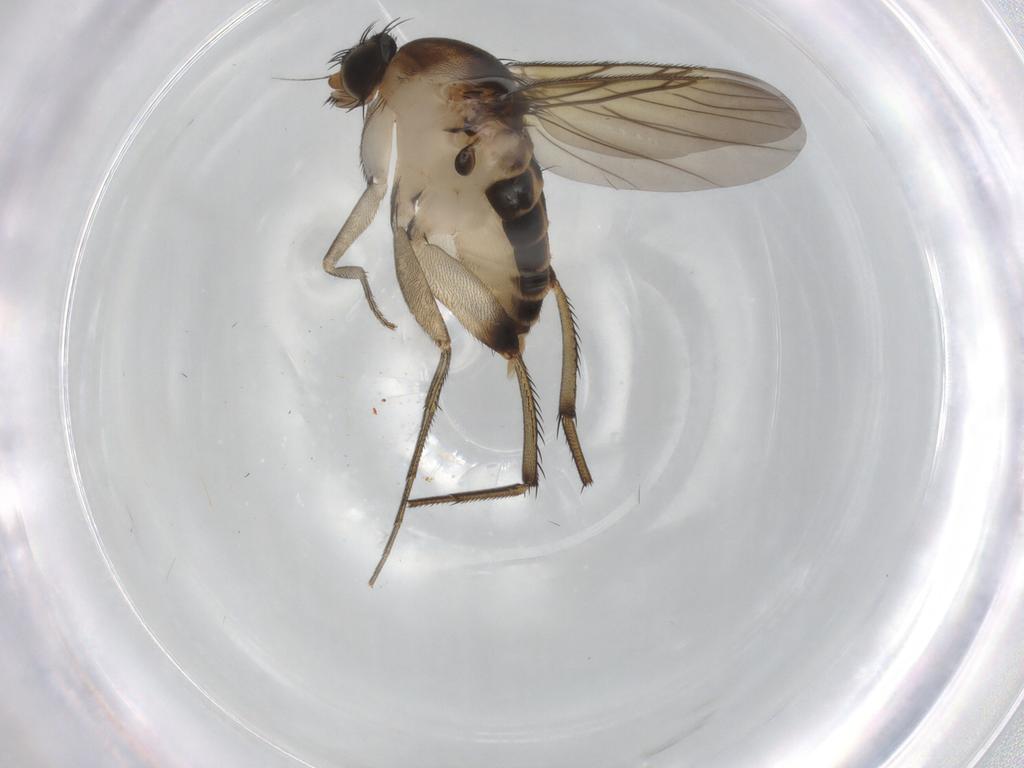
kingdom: Animalia
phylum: Arthropoda
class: Insecta
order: Diptera
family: Phoridae
